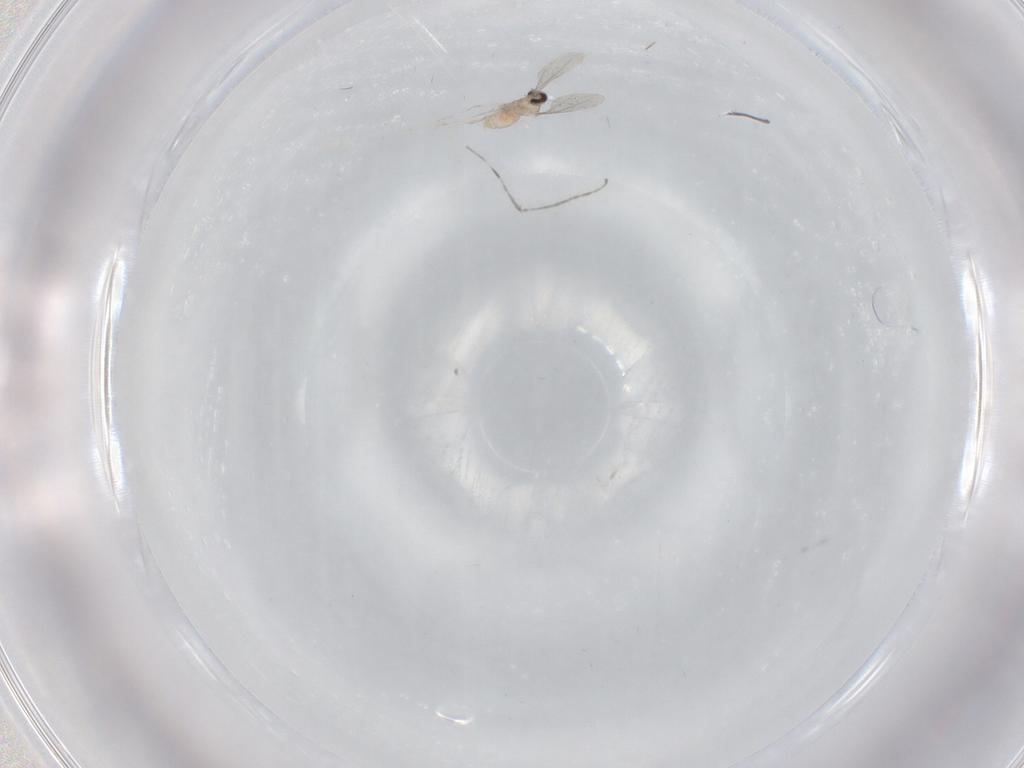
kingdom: Animalia
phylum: Arthropoda
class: Insecta
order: Diptera
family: Cecidomyiidae
